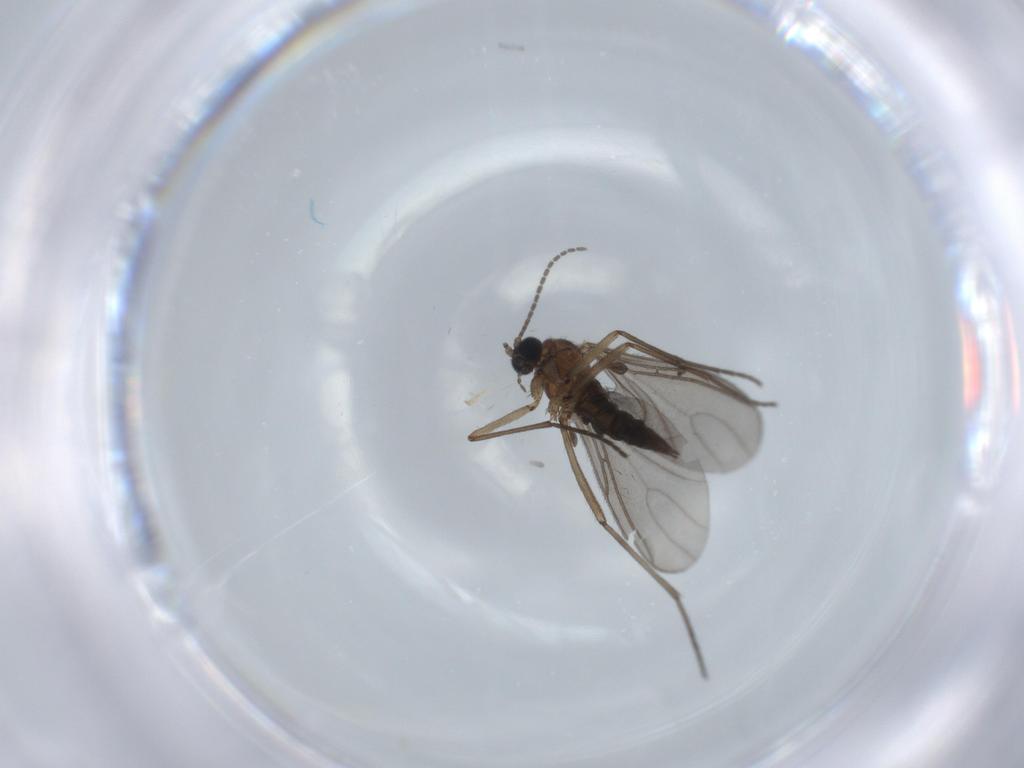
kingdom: Animalia
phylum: Arthropoda
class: Insecta
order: Diptera
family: Sciaridae
